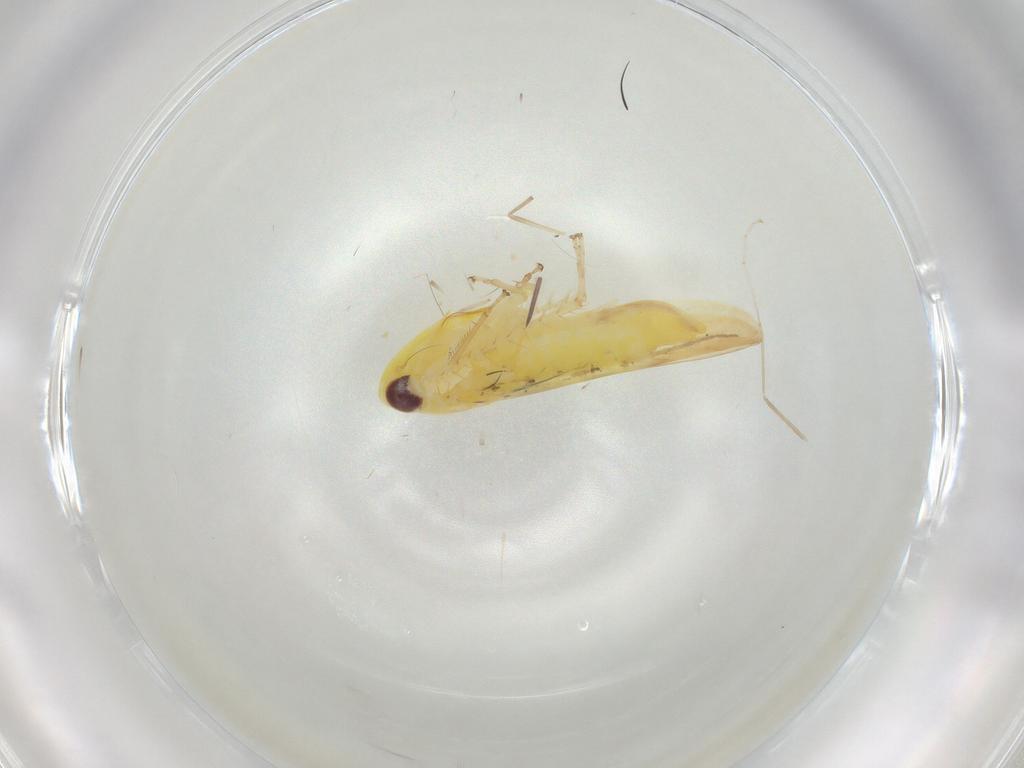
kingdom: Animalia
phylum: Arthropoda
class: Insecta
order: Hemiptera
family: Cicadellidae
